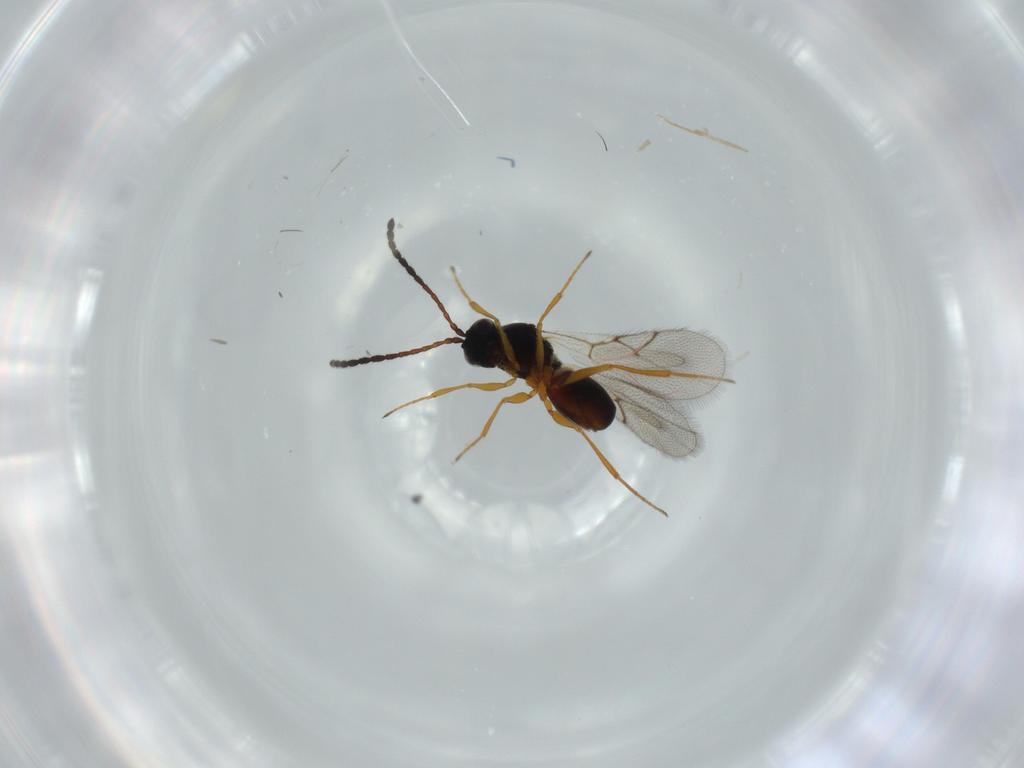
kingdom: Animalia
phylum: Arthropoda
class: Insecta
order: Hymenoptera
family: Figitidae
